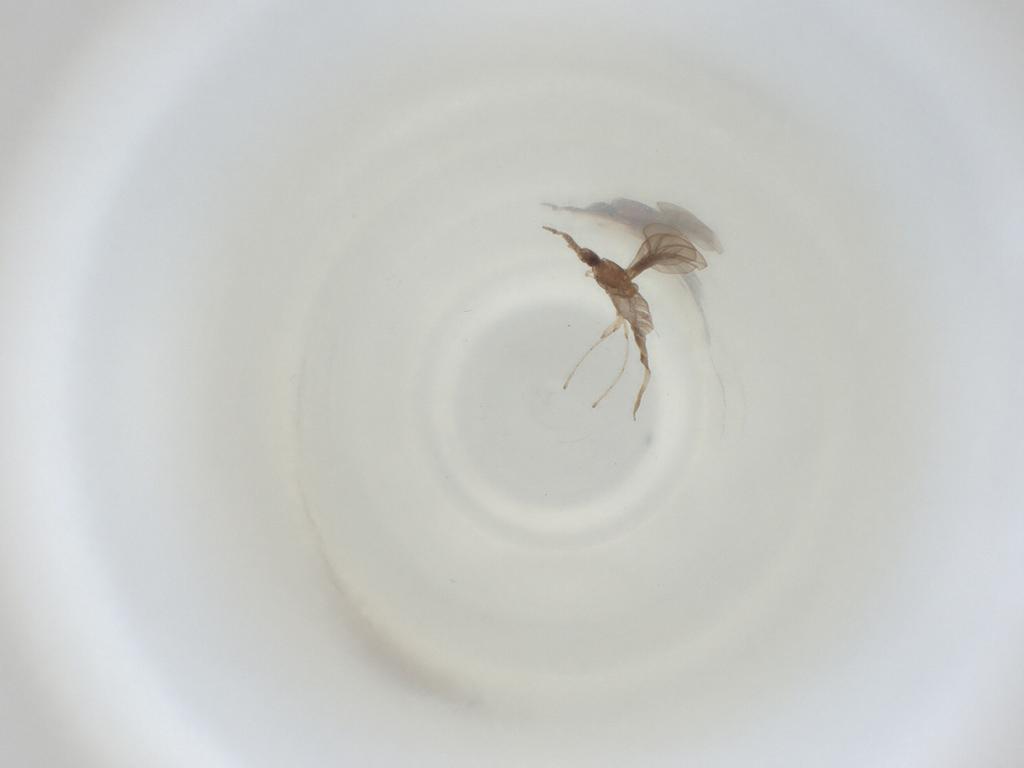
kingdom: Animalia
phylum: Arthropoda
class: Insecta
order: Diptera
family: Cecidomyiidae
